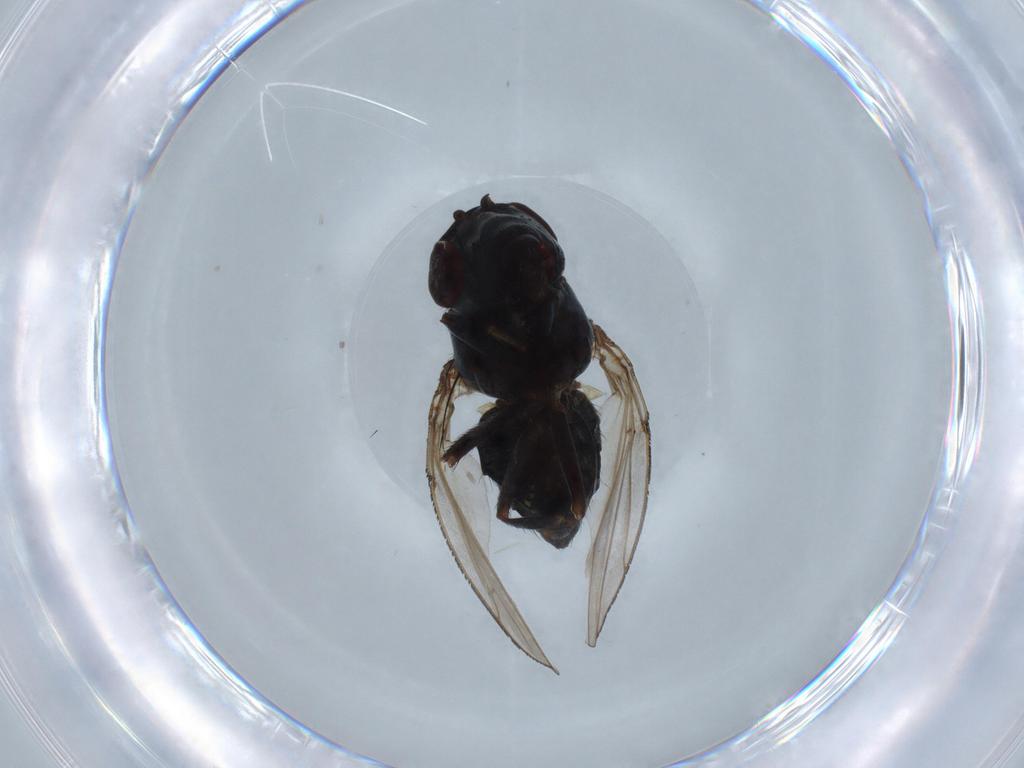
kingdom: Animalia
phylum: Arthropoda
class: Insecta
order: Diptera
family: Cecidomyiidae
